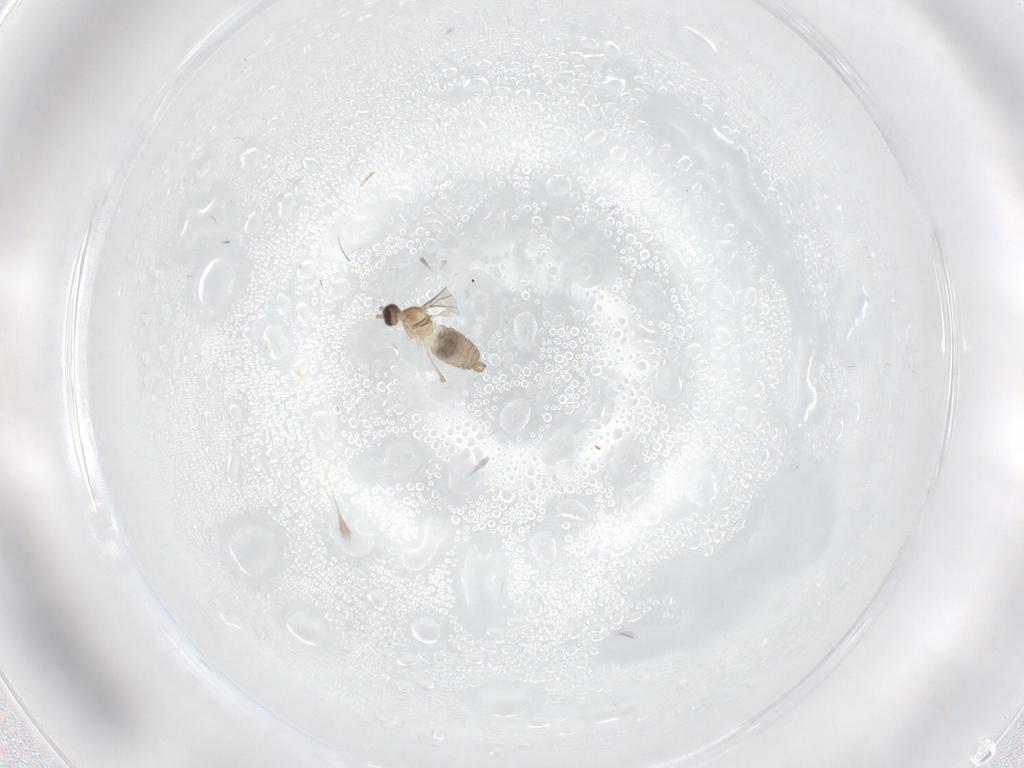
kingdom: Animalia
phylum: Arthropoda
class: Insecta
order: Diptera
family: Cecidomyiidae
